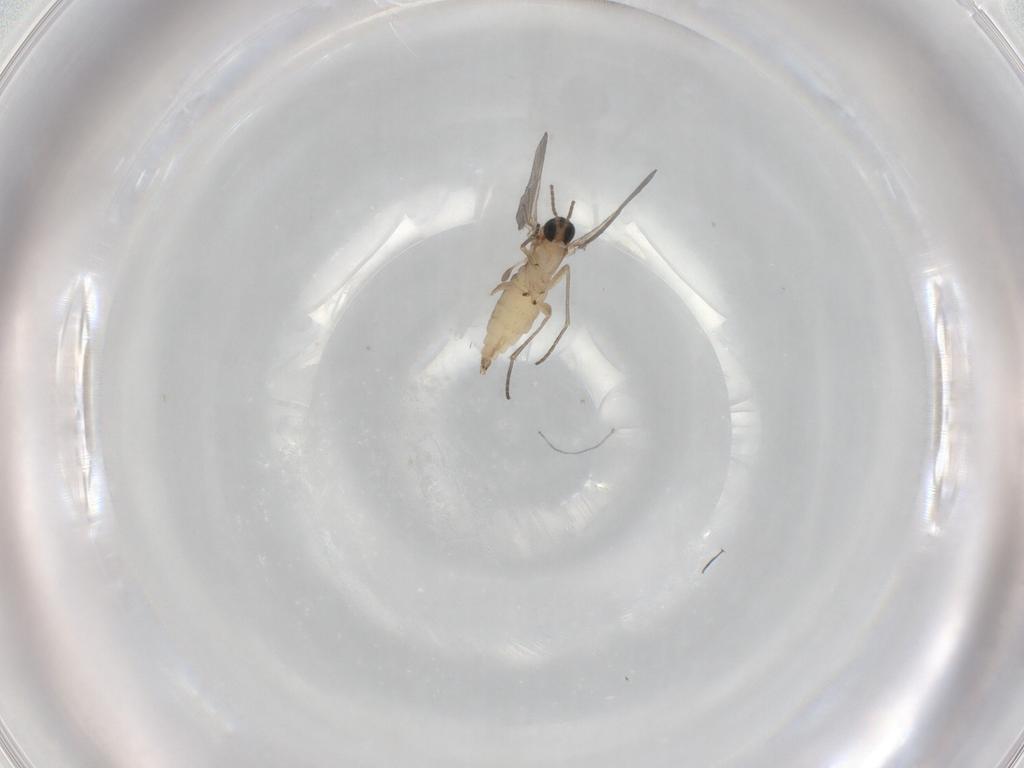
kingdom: Animalia
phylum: Arthropoda
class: Insecta
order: Diptera
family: Sciaridae
